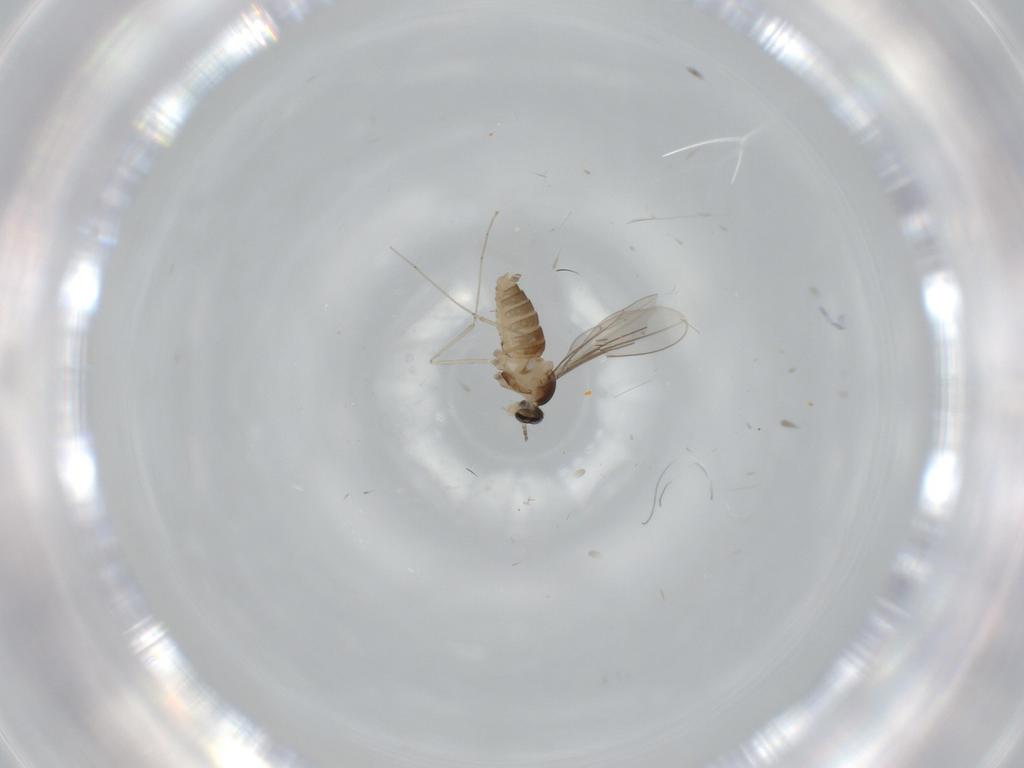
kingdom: Animalia
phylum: Arthropoda
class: Insecta
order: Diptera
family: Cecidomyiidae
